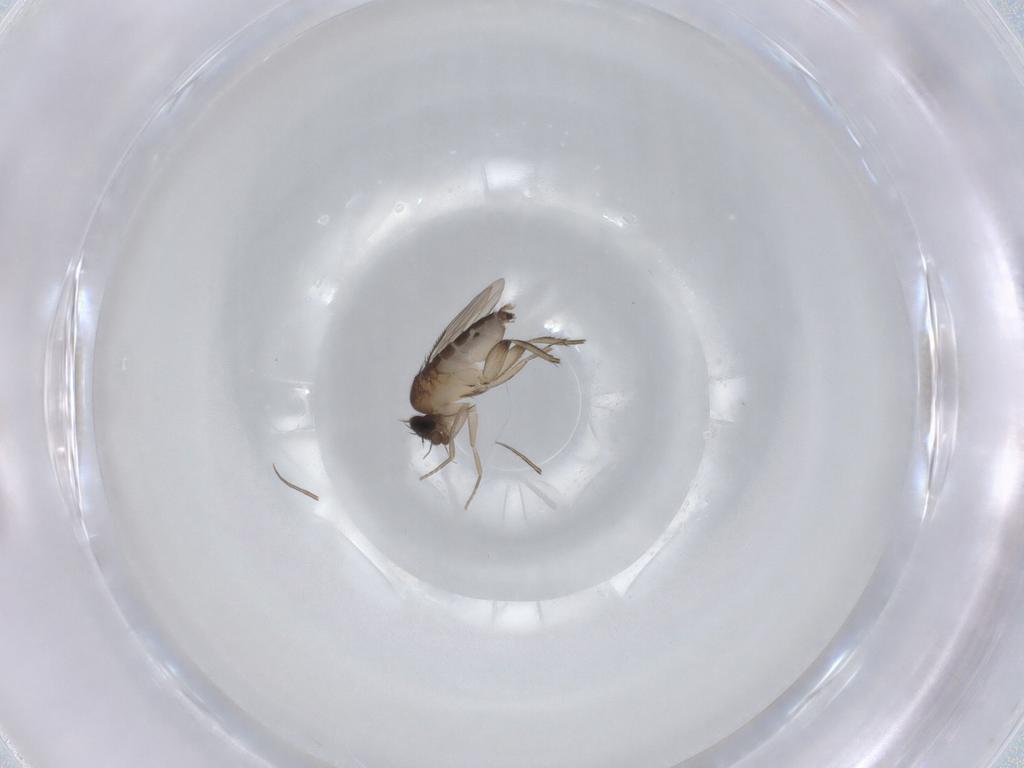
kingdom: Animalia
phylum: Arthropoda
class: Insecta
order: Diptera
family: Phoridae
